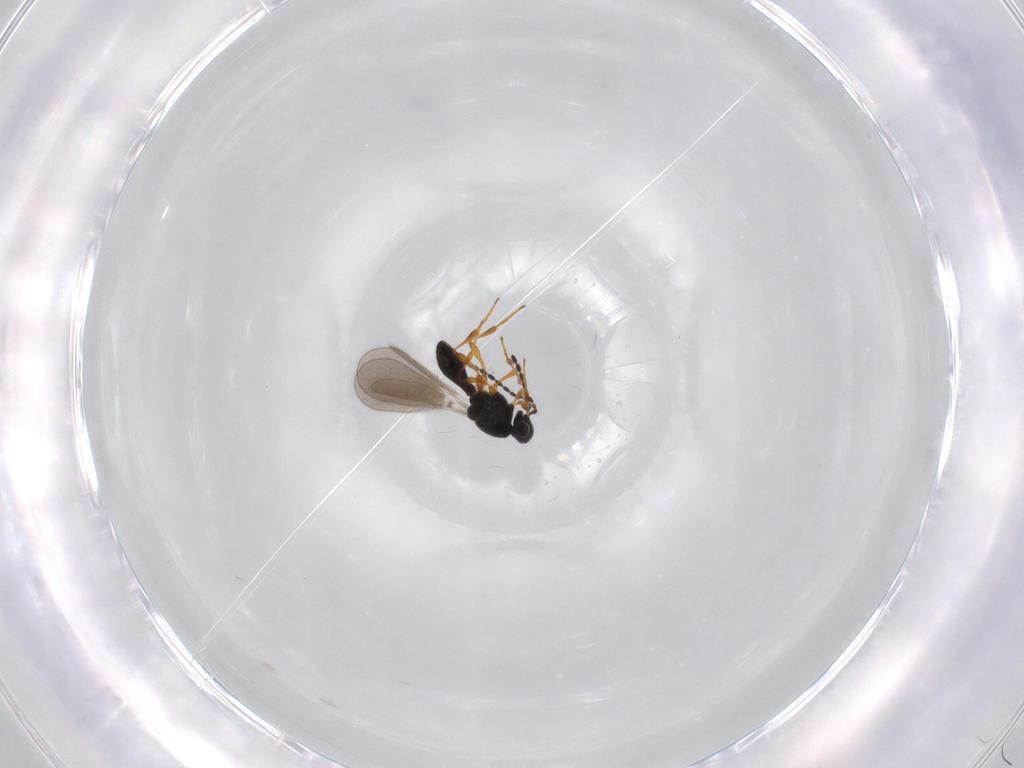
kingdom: Animalia
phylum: Arthropoda
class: Insecta
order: Hymenoptera
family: Platygastridae
